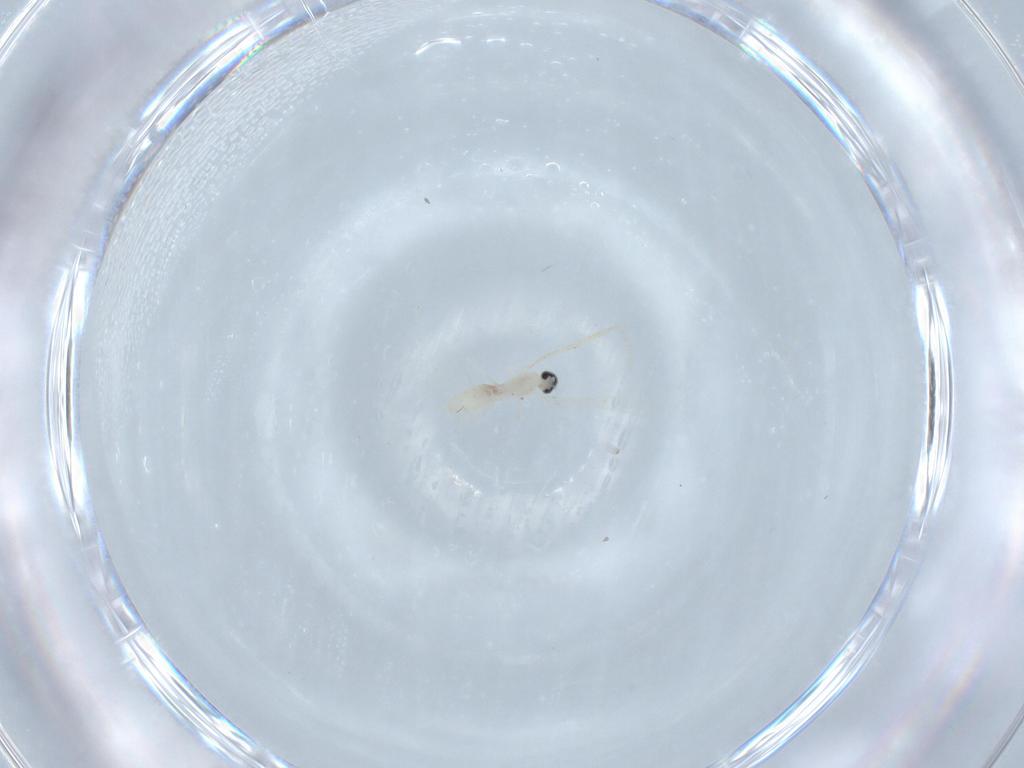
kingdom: Animalia
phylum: Arthropoda
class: Insecta
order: Diptera
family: Cecidomyiidae
